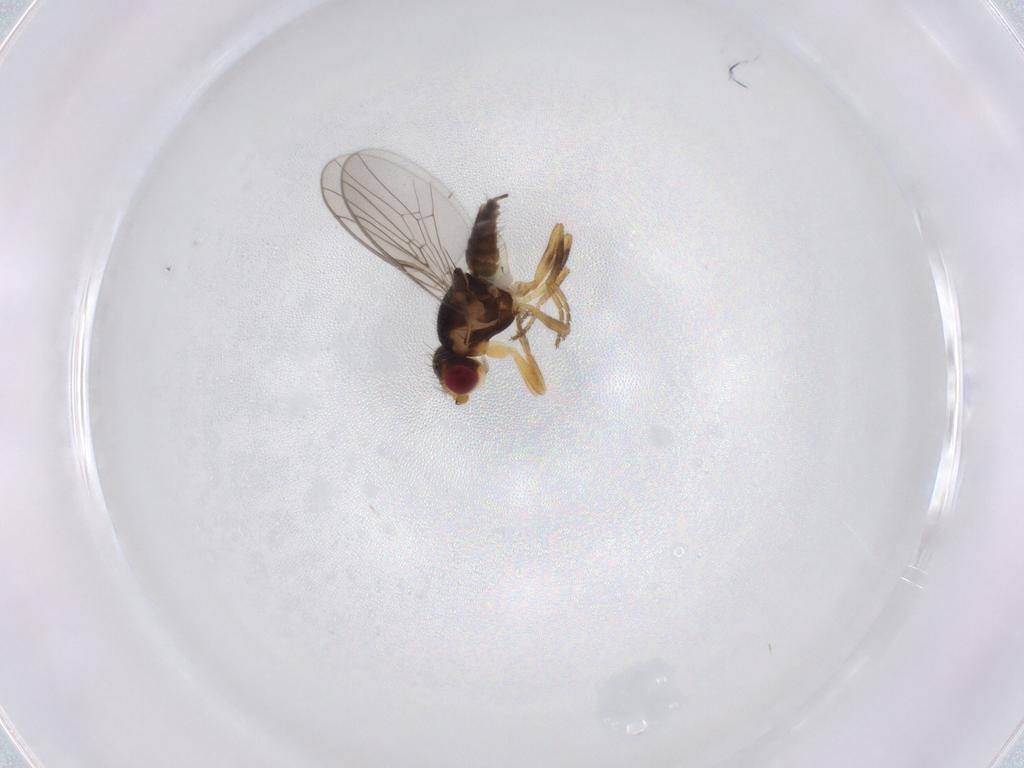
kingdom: Animalia
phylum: Arthropoda
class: Insecta
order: Diptera
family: Chloropidae
